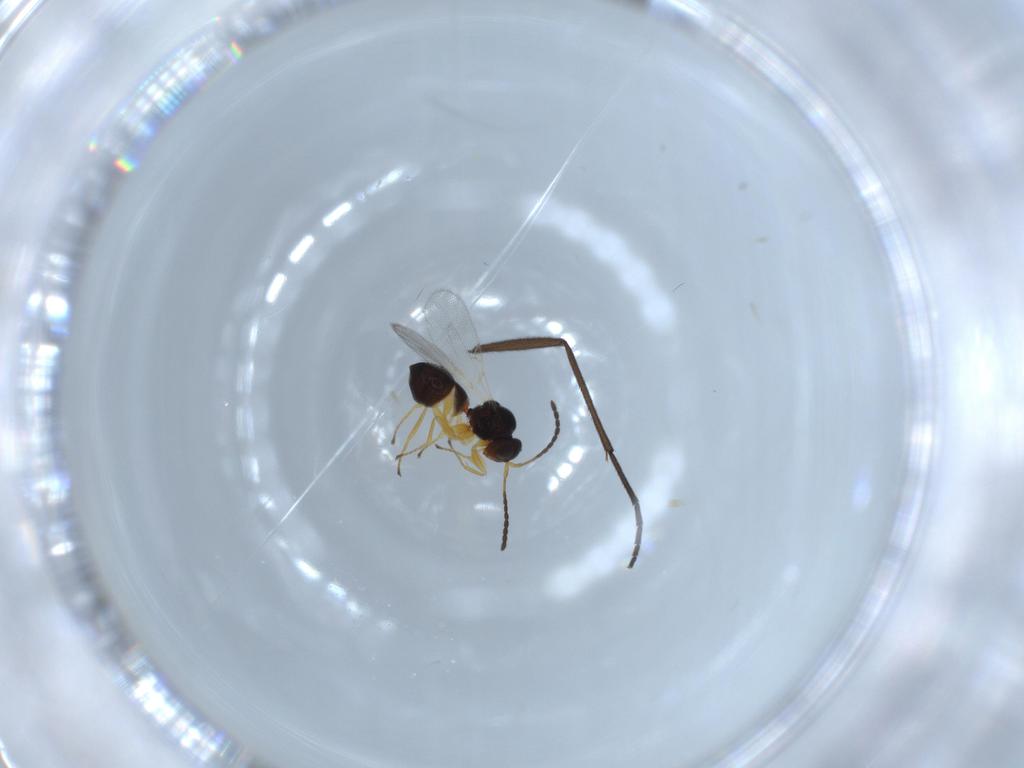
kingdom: Animalia
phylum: Arthropoda
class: Insecta
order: Hymenoptera
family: Figitidae
